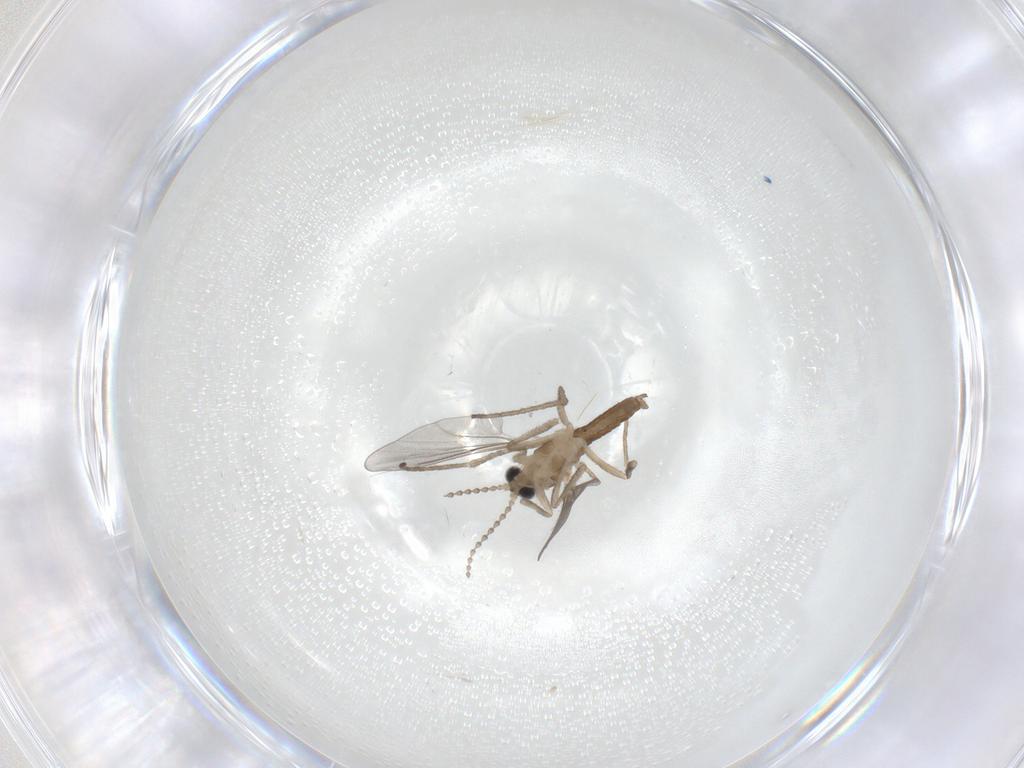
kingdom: Animalia
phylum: Arthropoda
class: Insecta
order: Diptera
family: Cecidomyiidae
